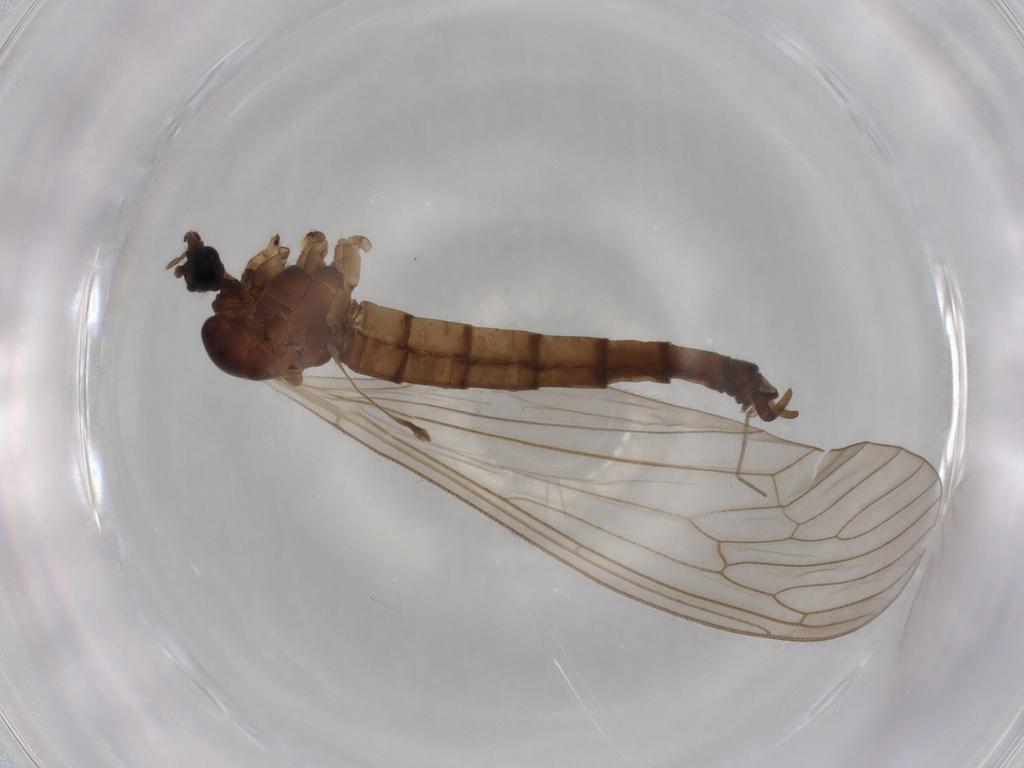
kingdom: Animalia
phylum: Arthropoda
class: Insecta
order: Diptera
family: Trichoceridae
